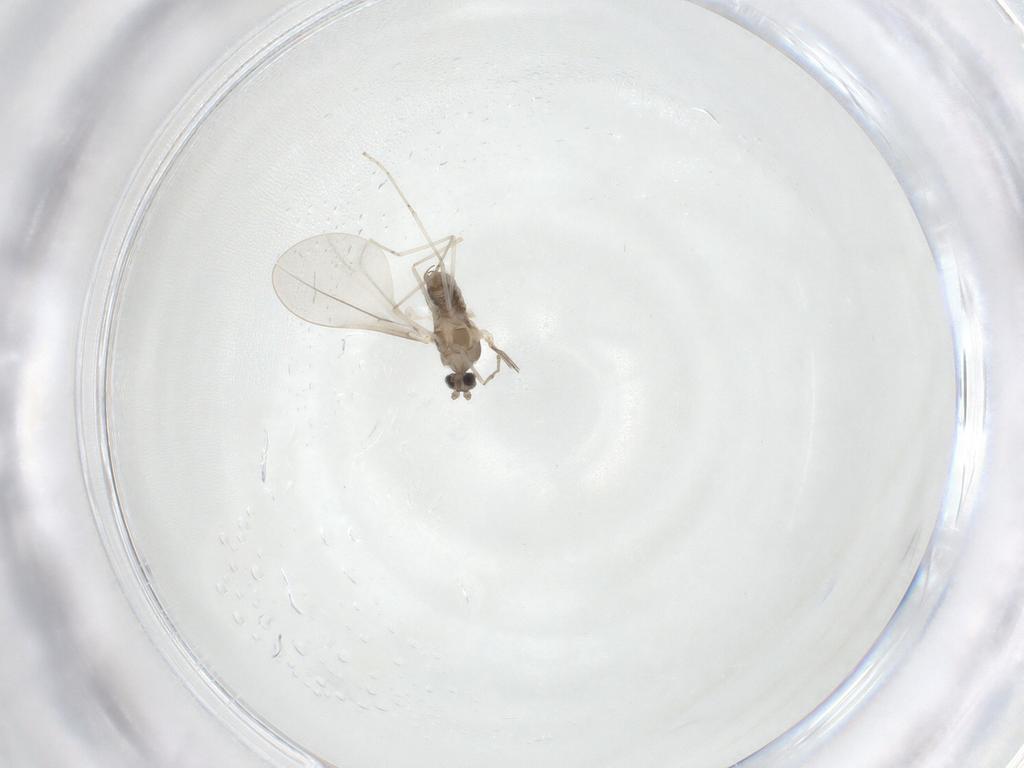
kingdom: Animalia
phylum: Arthropoda
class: Insecta
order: Diptera
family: Cecidomyiidae
